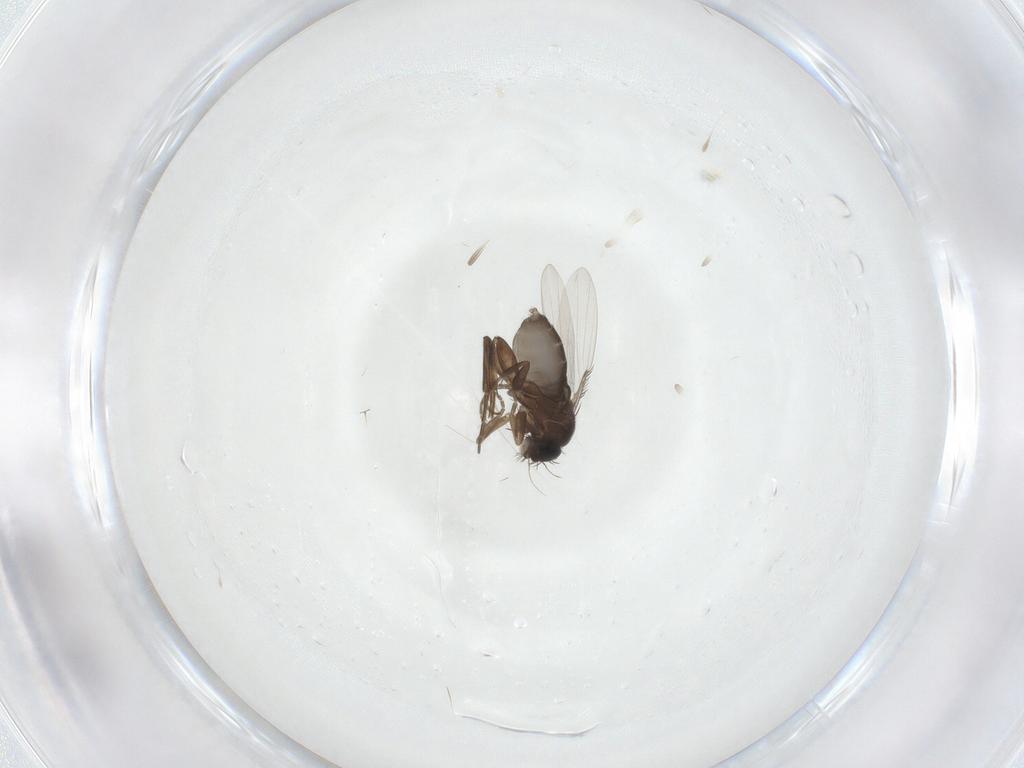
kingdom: Animalia
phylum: Arthropoda
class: Insecta
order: Diptera
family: Phoridae
